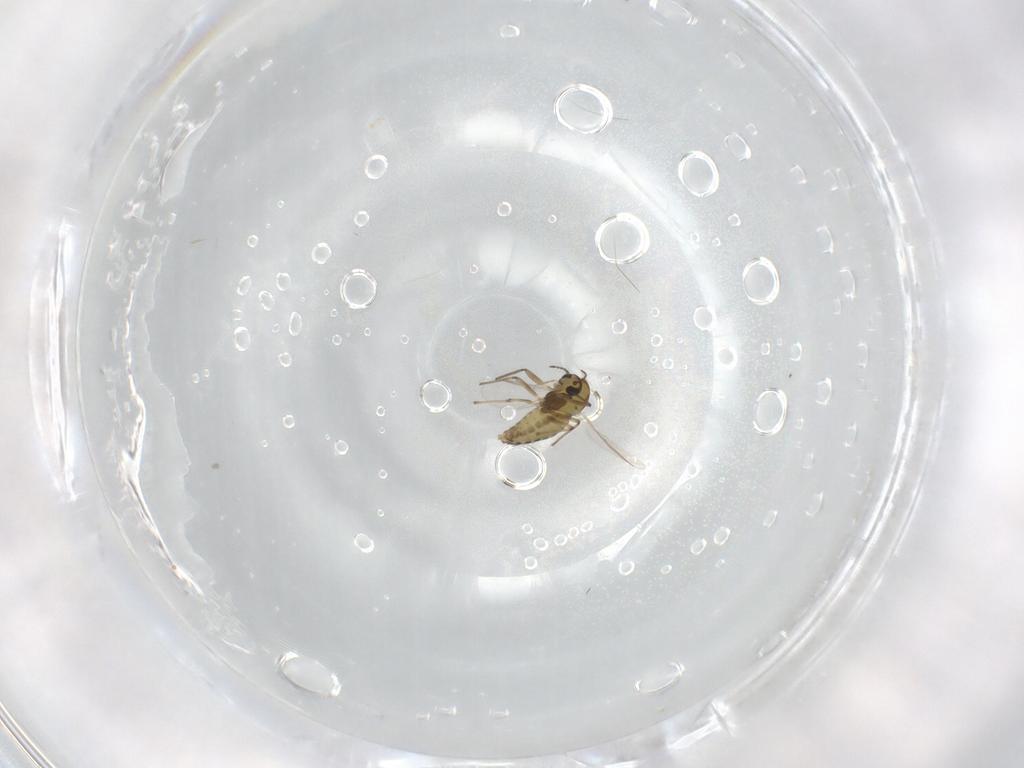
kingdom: Animalia
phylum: Arthropoda
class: Insecta
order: Diptera
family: Chironomidae
